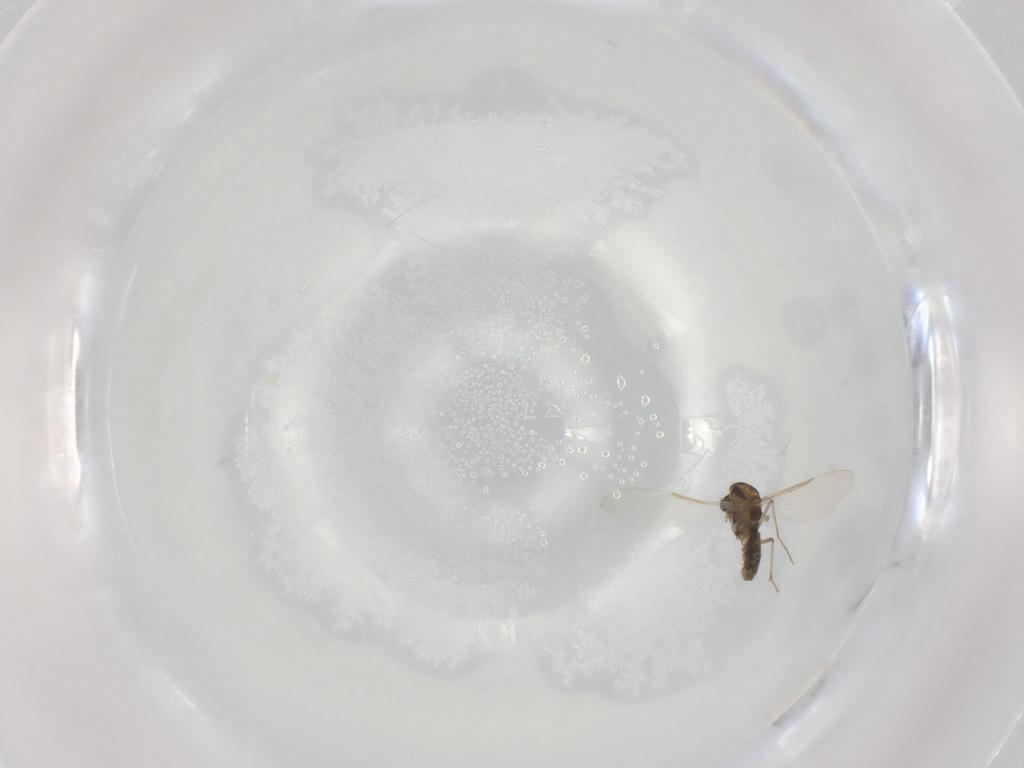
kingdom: Animalia
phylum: Arthropoda
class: Insecta
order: Diptera
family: Chironomidae
